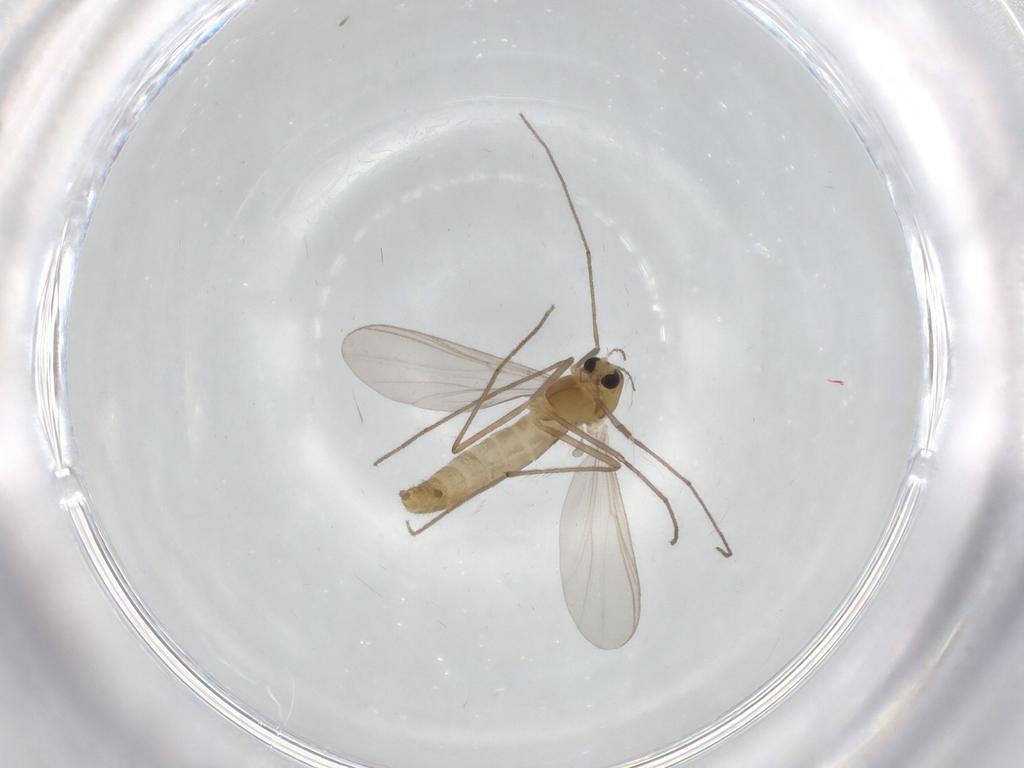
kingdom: Animalia
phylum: Arthropoda
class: Insecta
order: Diptera
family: Chironomidae
